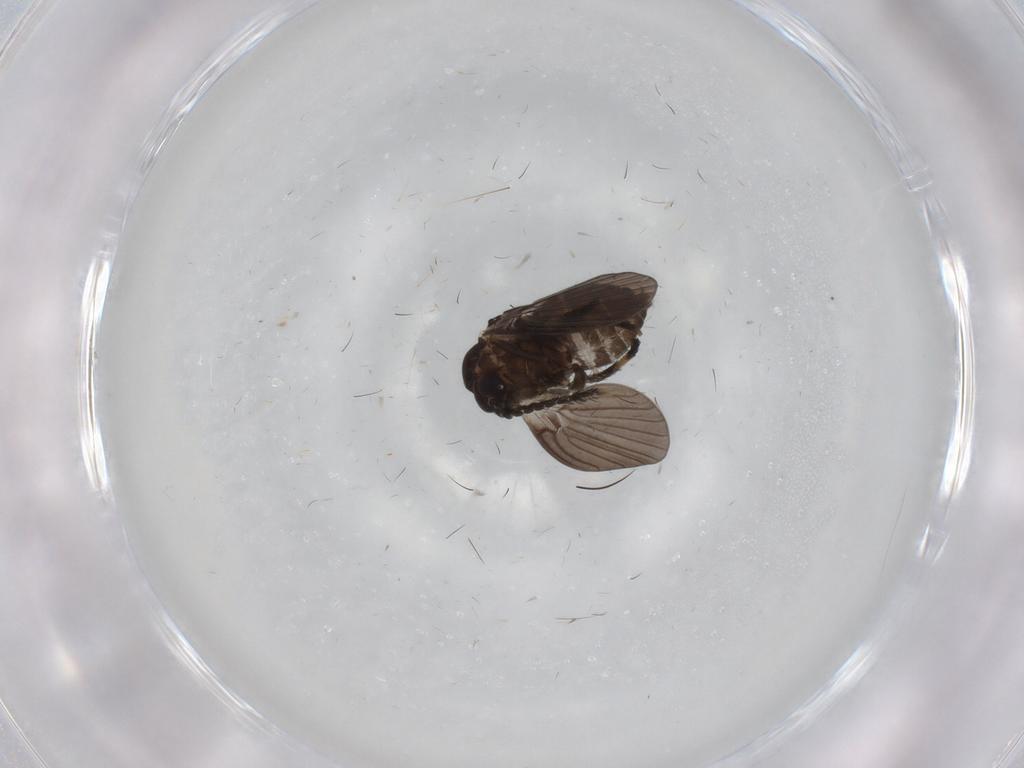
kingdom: Animalia
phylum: Arthropoda
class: Insecta
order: Diptera
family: Psychodidae
